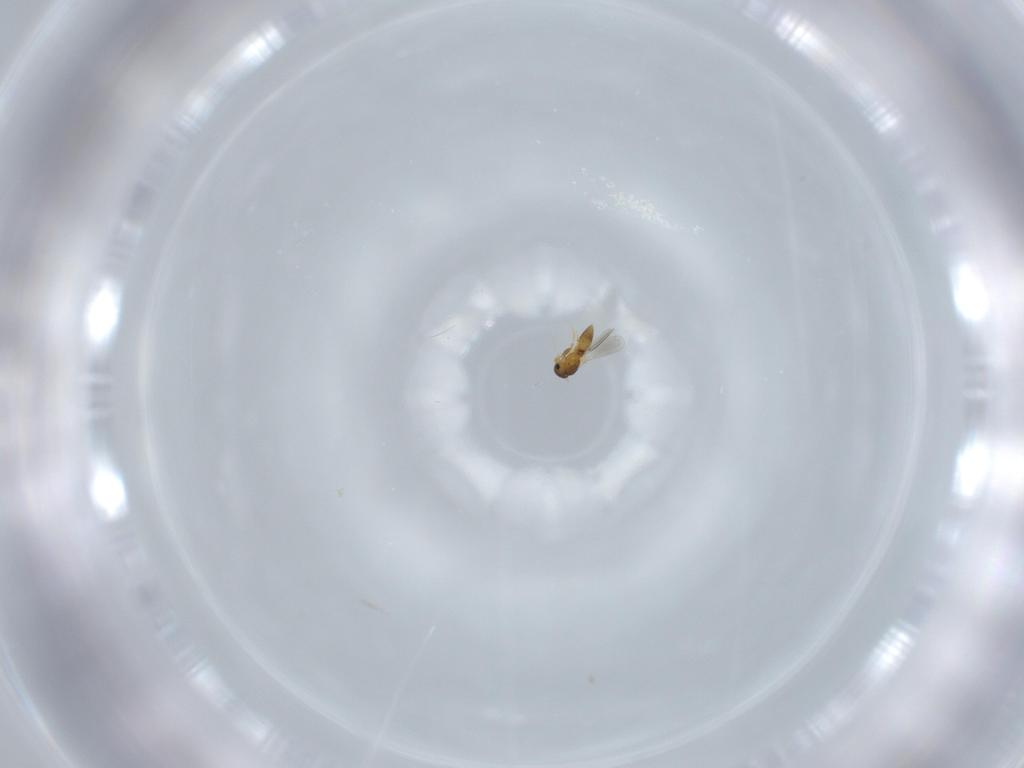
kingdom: Animalia
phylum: Arthropoda
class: Insecta
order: Hymenoptera
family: Platygastridae
